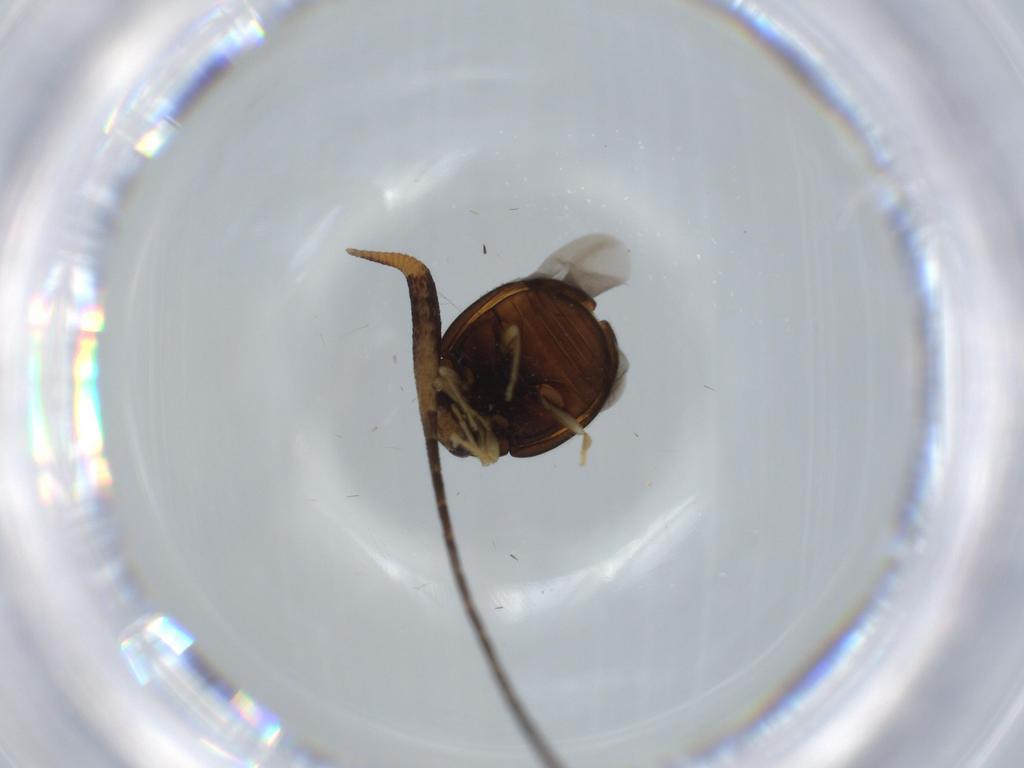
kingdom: Animalia
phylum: Arthropoda
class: Insecta
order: Coleoptera
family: Coccinellidae
